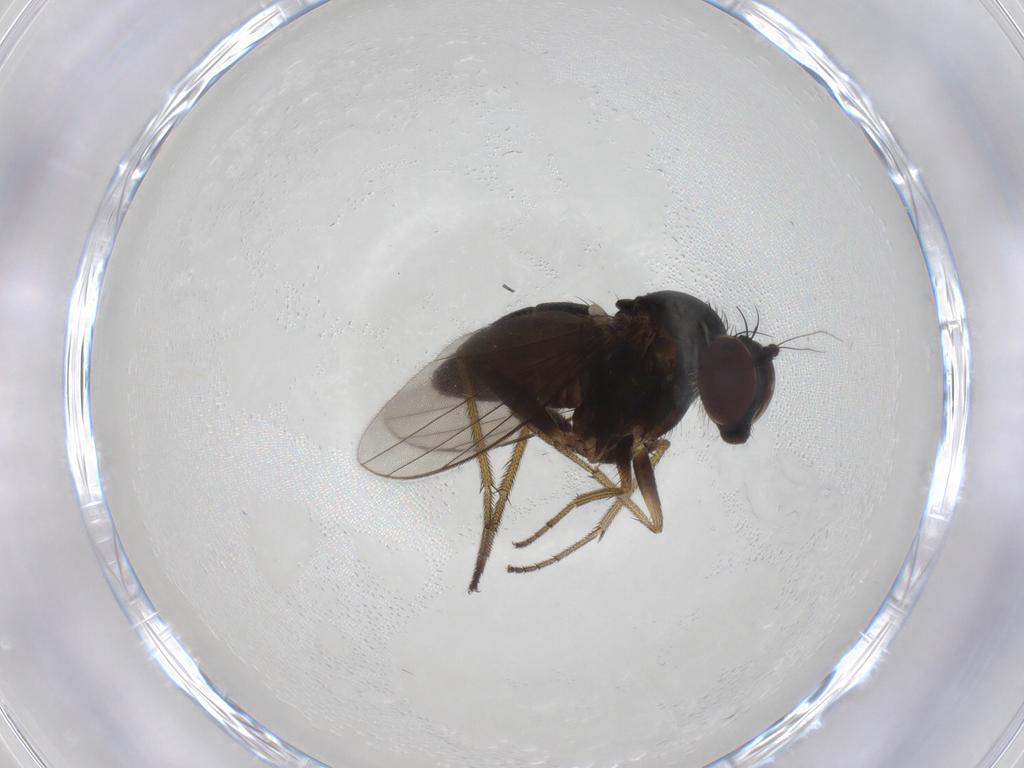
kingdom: Animalia
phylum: Arthropoda
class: Insecta
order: Diptera
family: Dolichopodidae
